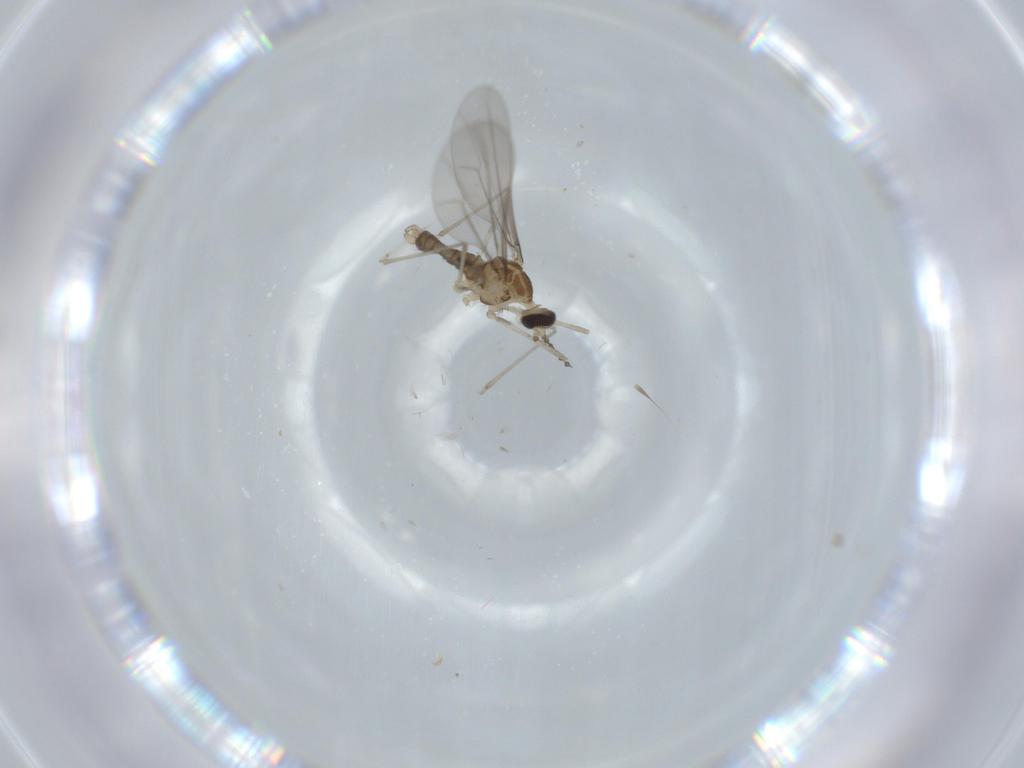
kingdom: Animalia
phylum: Arthropoda
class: Insecta
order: Diptera
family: Cecidomyiidae
